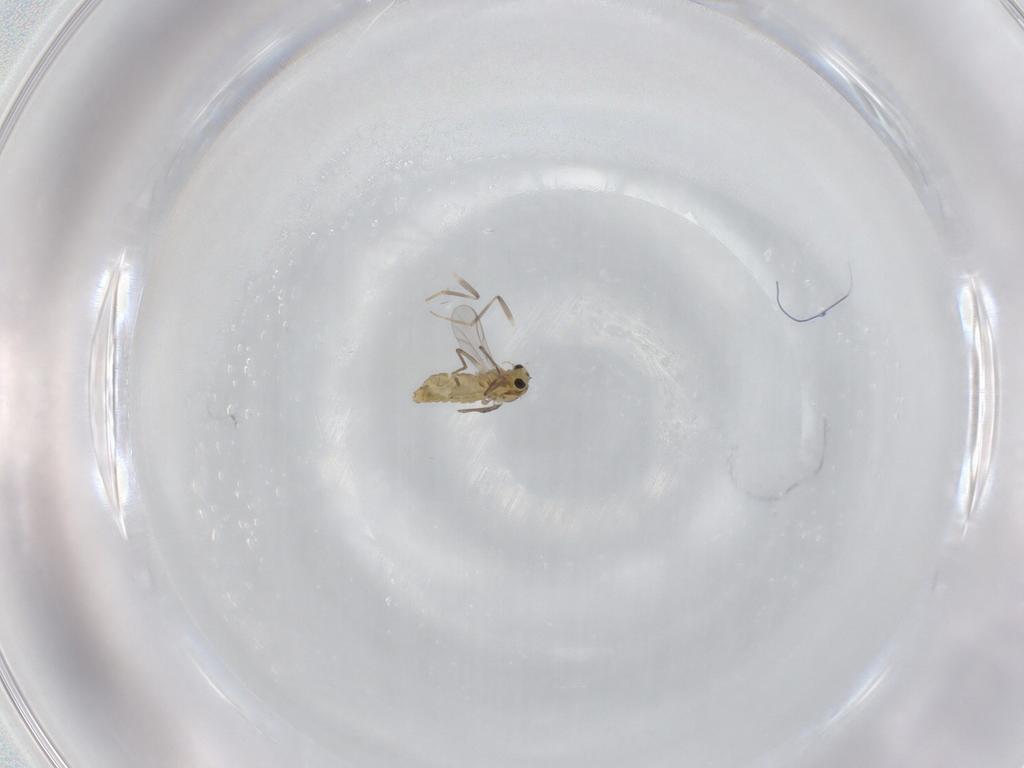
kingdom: Animalia
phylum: Arthropoda
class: Insecta
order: Diptera
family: Chironomidae
